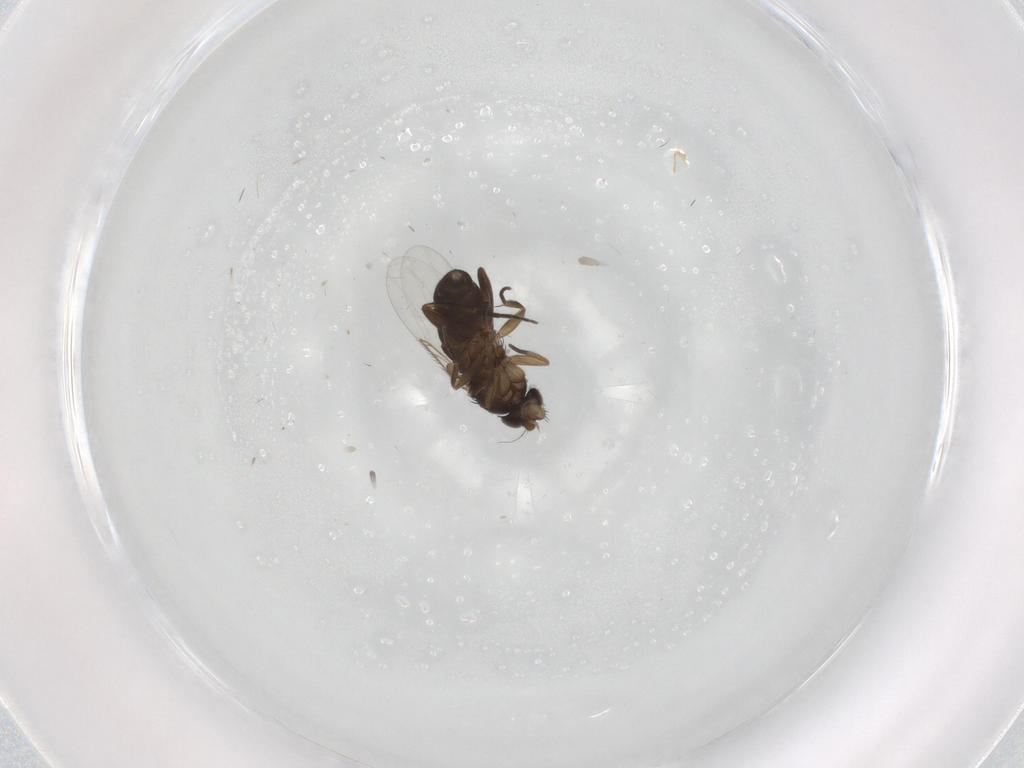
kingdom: Animalia
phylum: Arthropoda
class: Insecta
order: Diptera
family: Phoridae
